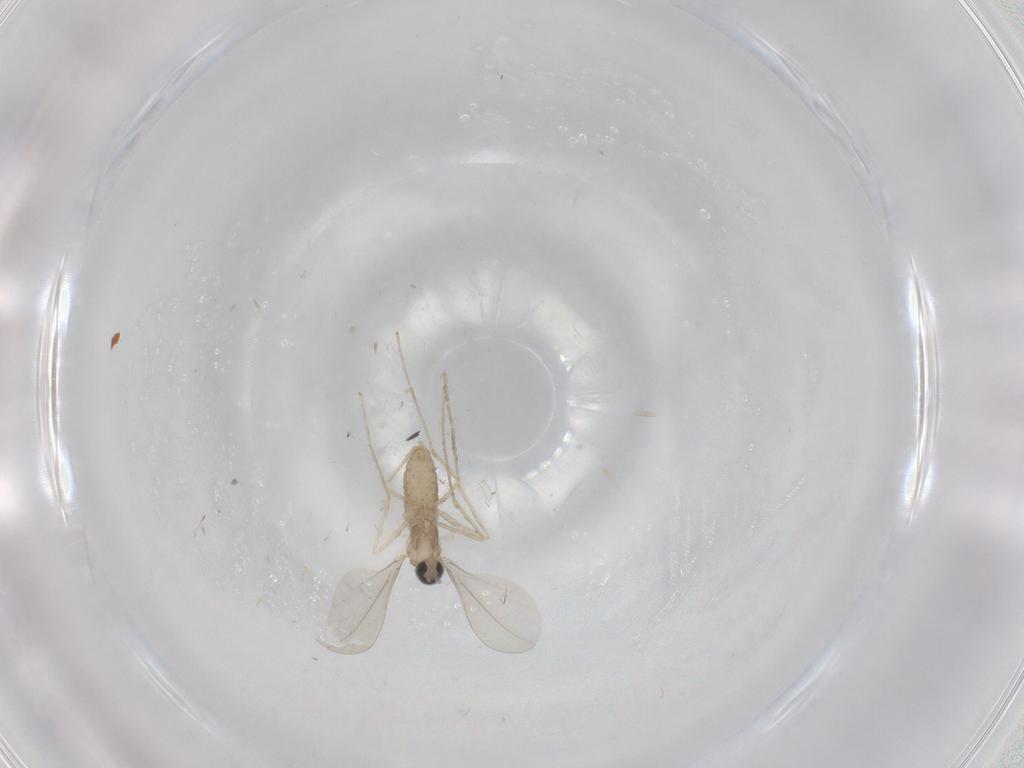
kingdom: Animalia
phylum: Arthropoda
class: Insecta
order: Diptera
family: Cecidomyiidae
